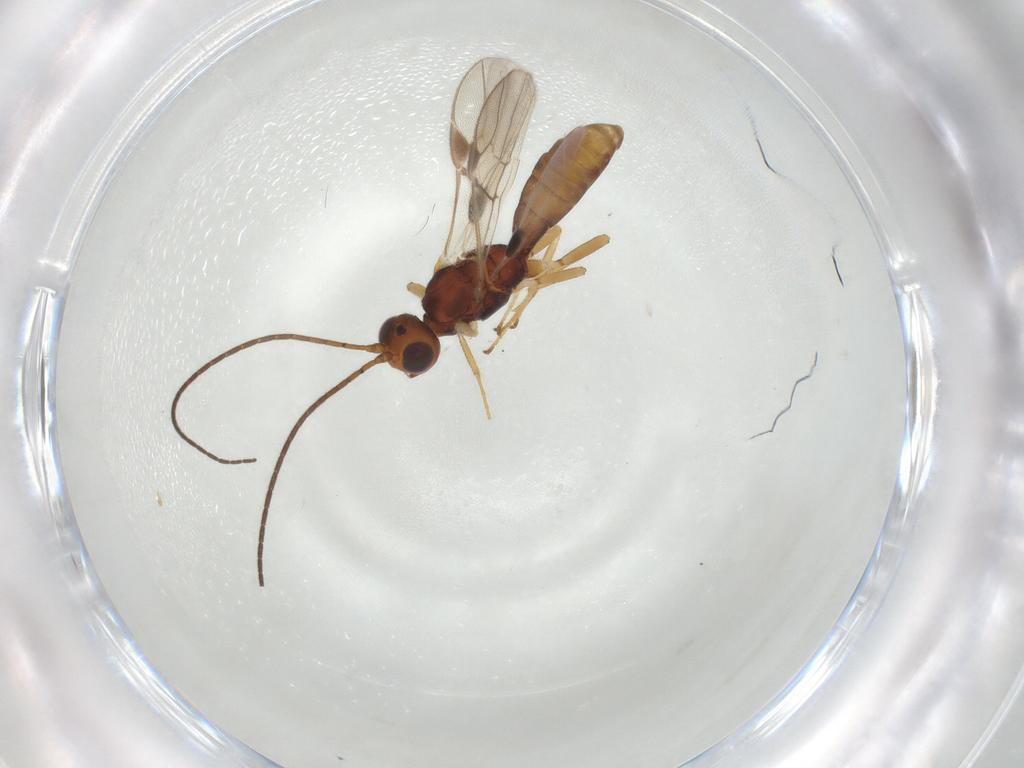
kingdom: Animalia
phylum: Arthropoda
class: Insecta
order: Hymenoptera
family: Braconidae
